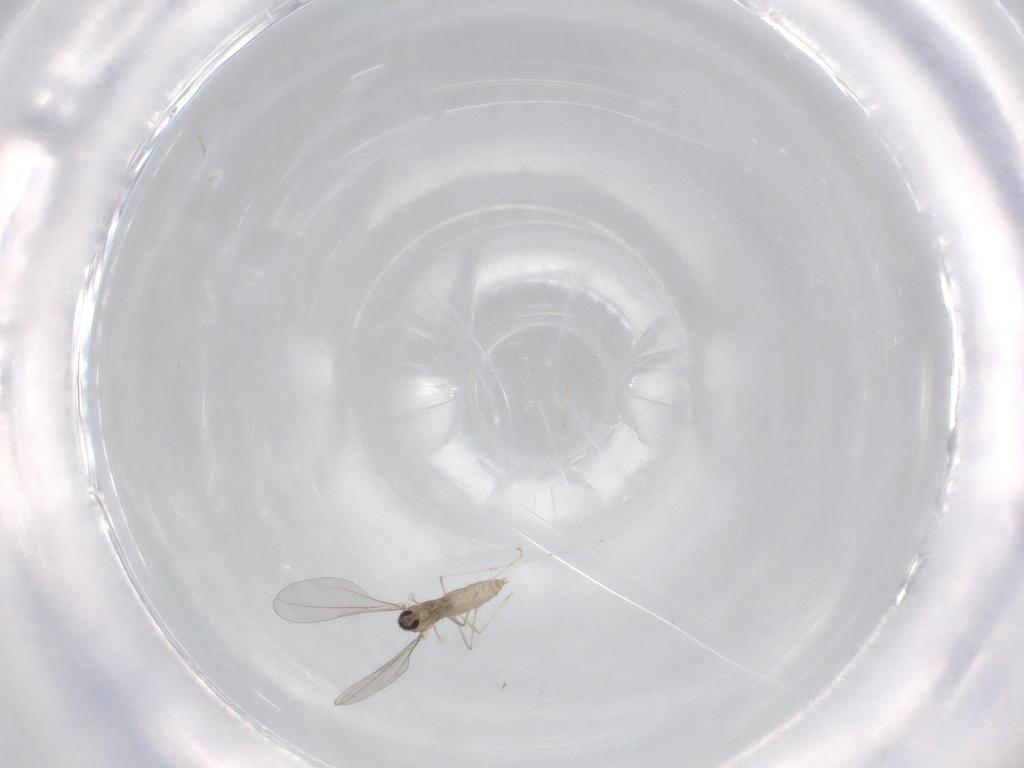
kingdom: Animalia
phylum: Arthropoda
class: Insecta
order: Diptera
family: Cecidomyiidae
